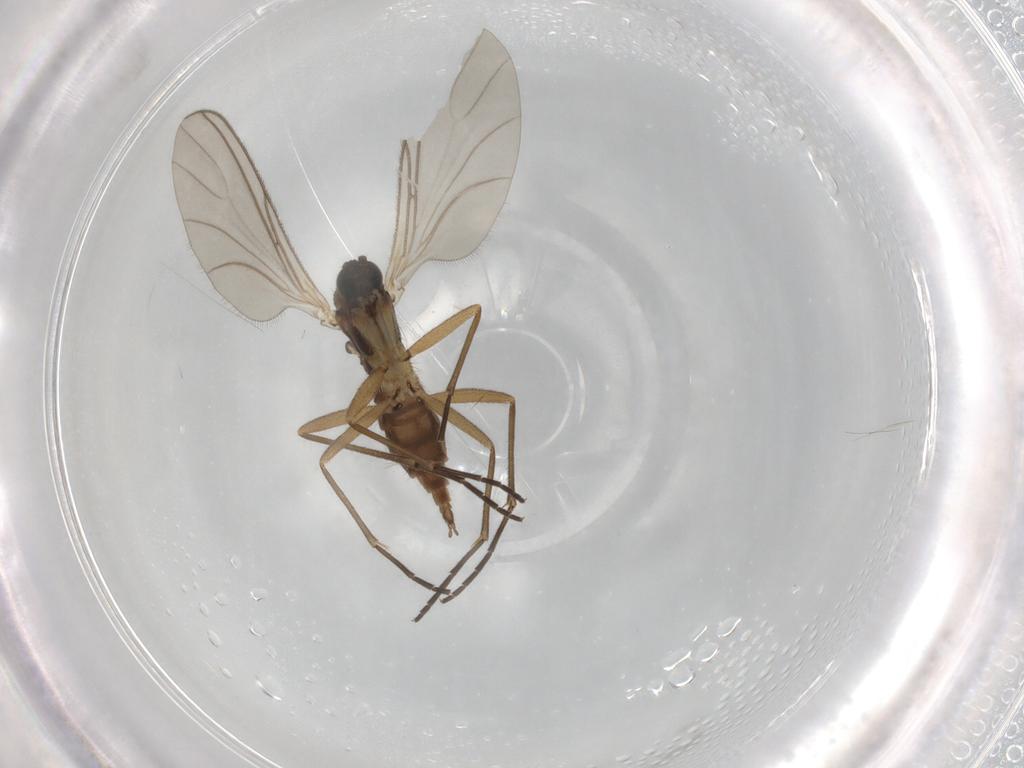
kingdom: Animalia
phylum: Arthropoda
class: Insecta
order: Diptera
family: Sciaridae
